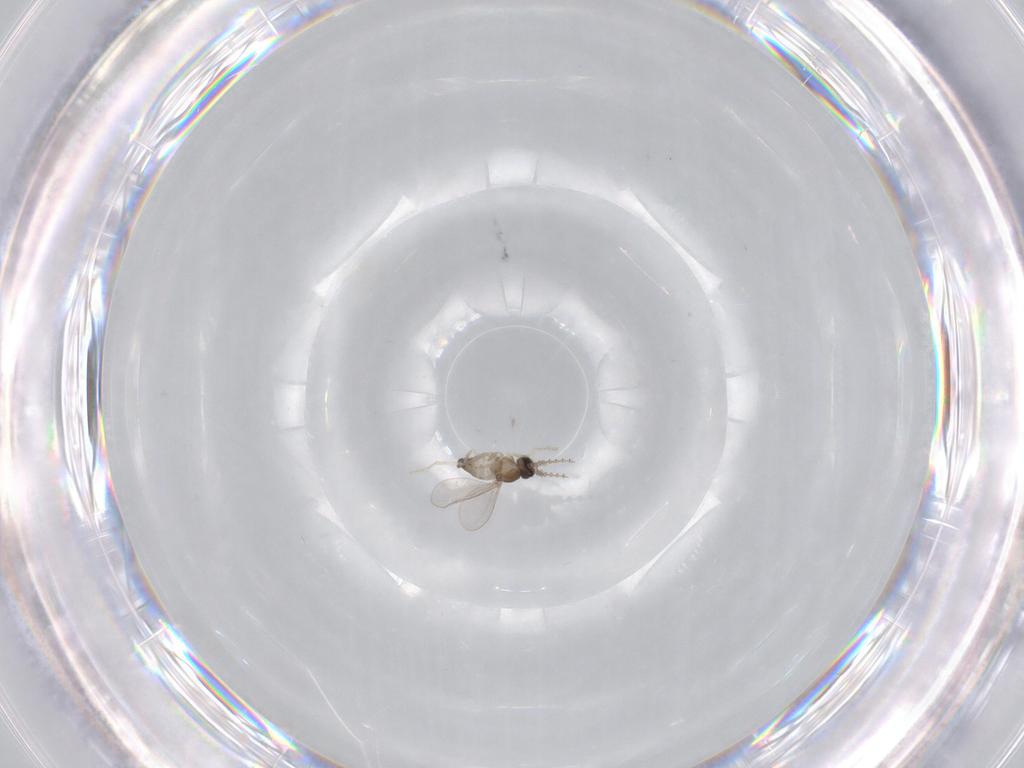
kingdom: Animalia
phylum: Arthropoda
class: Insecta
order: Diptera
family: Cecidomyiidae
